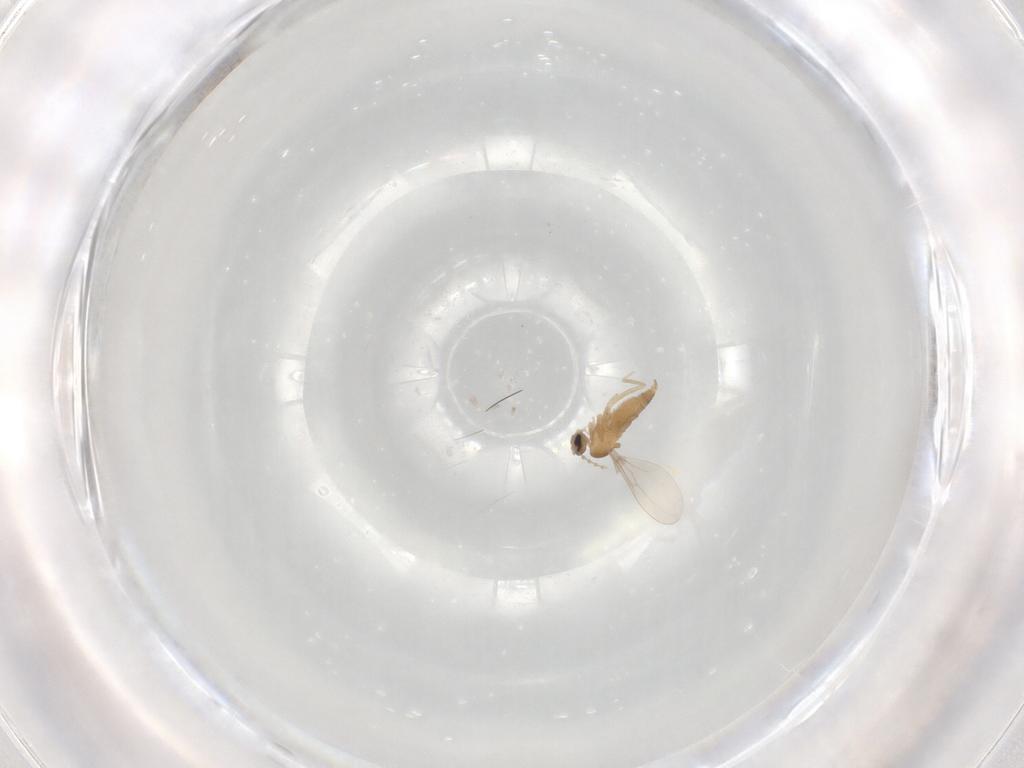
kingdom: Animalia
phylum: Arthropoda
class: Insecta
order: Diptera
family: Cecidomyiidae
